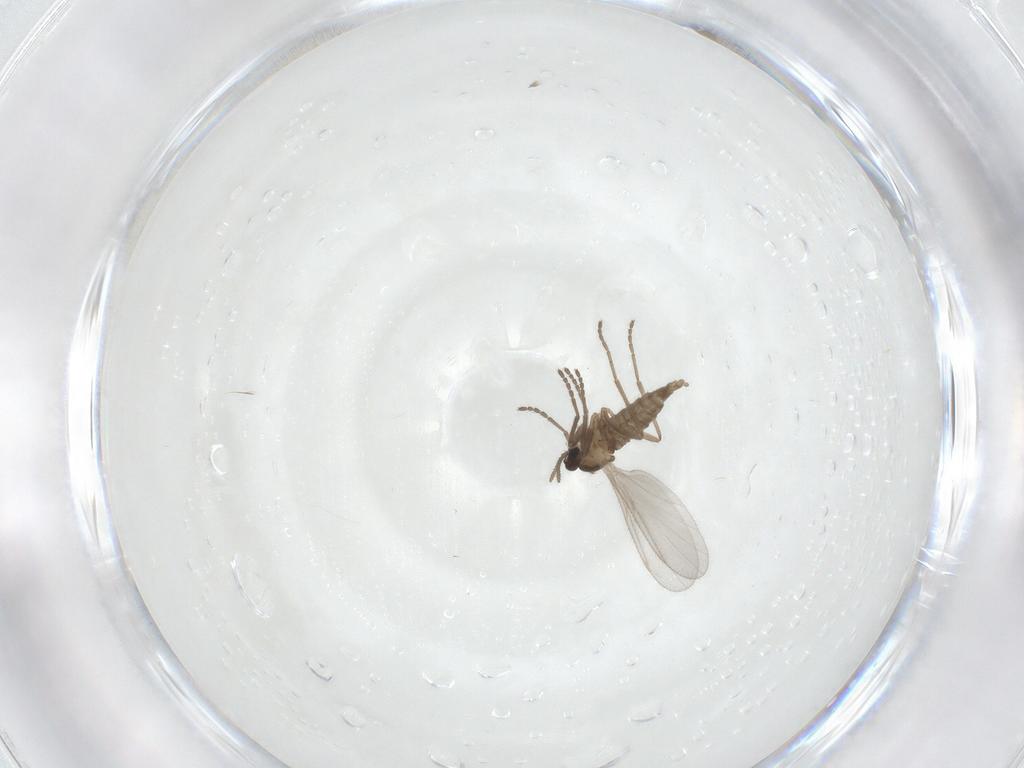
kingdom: Animalia
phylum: Arthropoda
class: Insecta
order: Diptera
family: Cecidomyiidae
